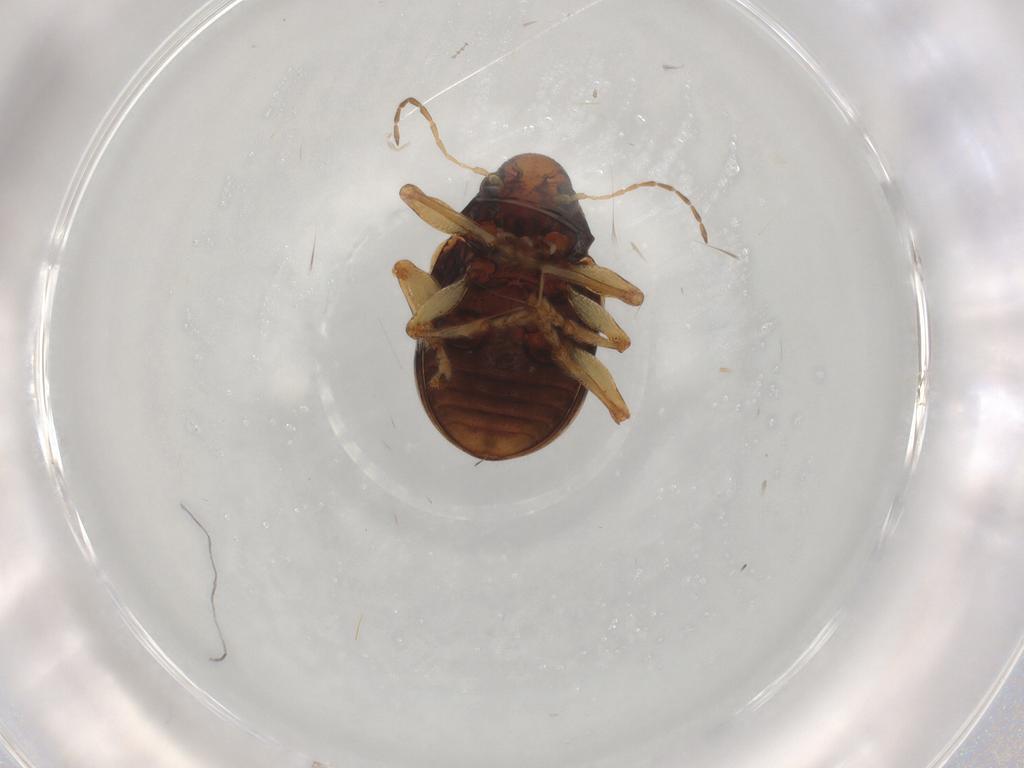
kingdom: Animalia
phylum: Arthropoda
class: Insecta
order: Coleoptera
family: Chrysomelidae
